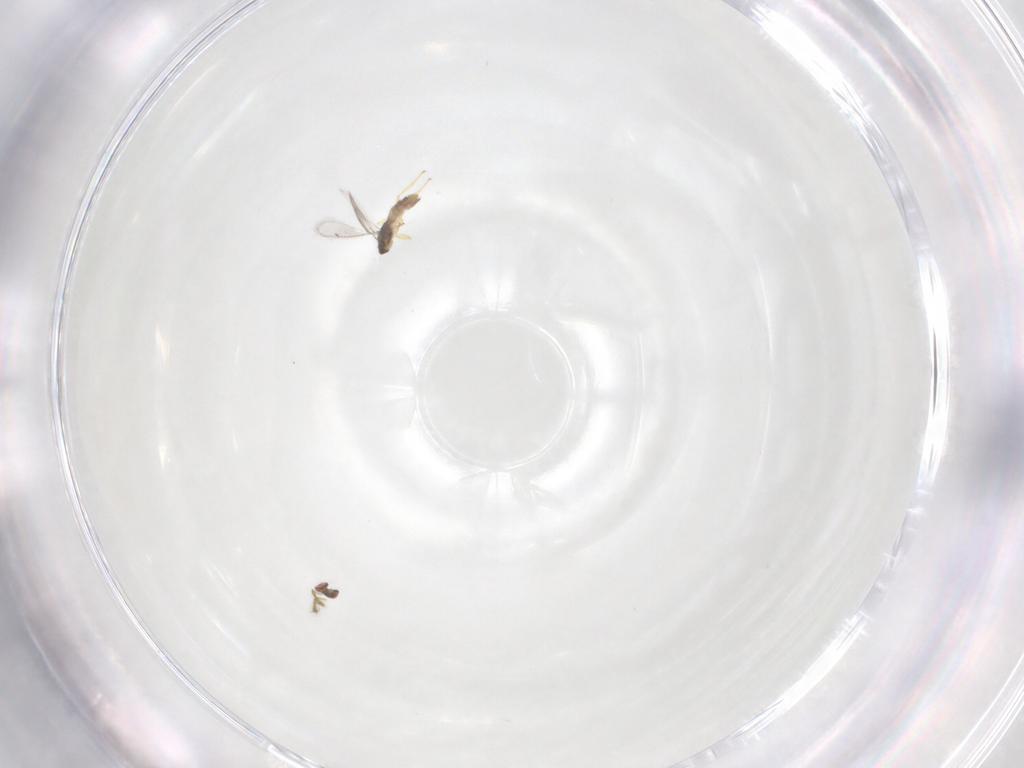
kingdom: Animalia
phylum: Arthropoda
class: Insecta
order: Hymenoptera
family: Eulophidae
